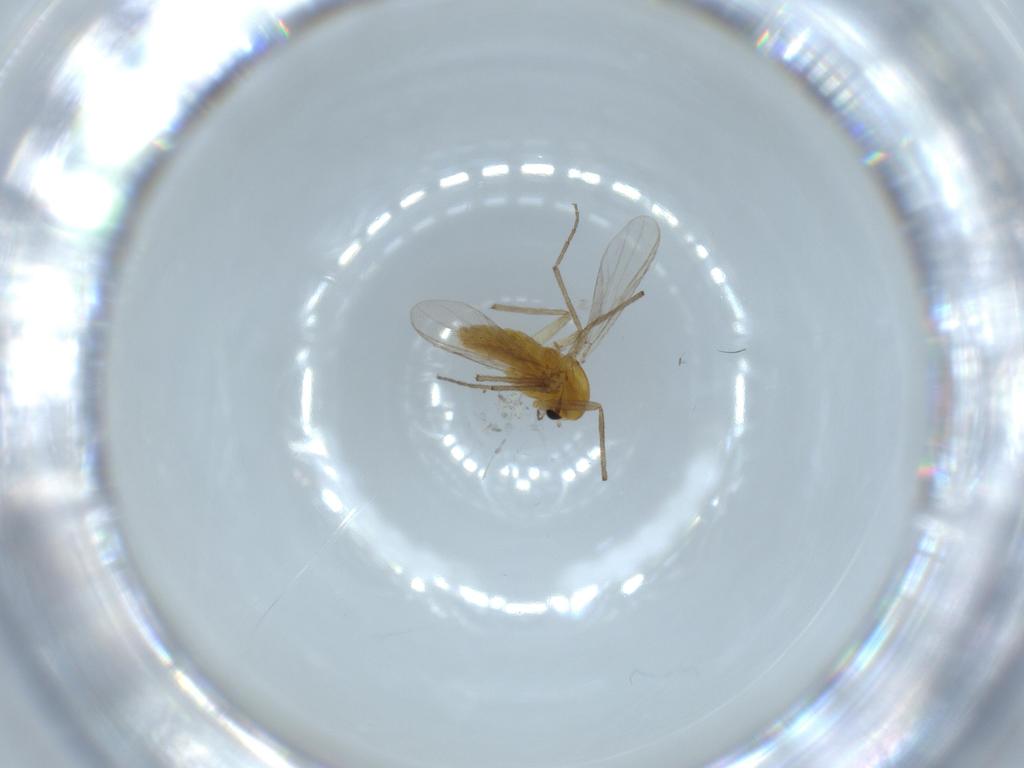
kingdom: Animalia
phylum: Arthropoda
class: Insecta
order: Diptera
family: Chironomidae
